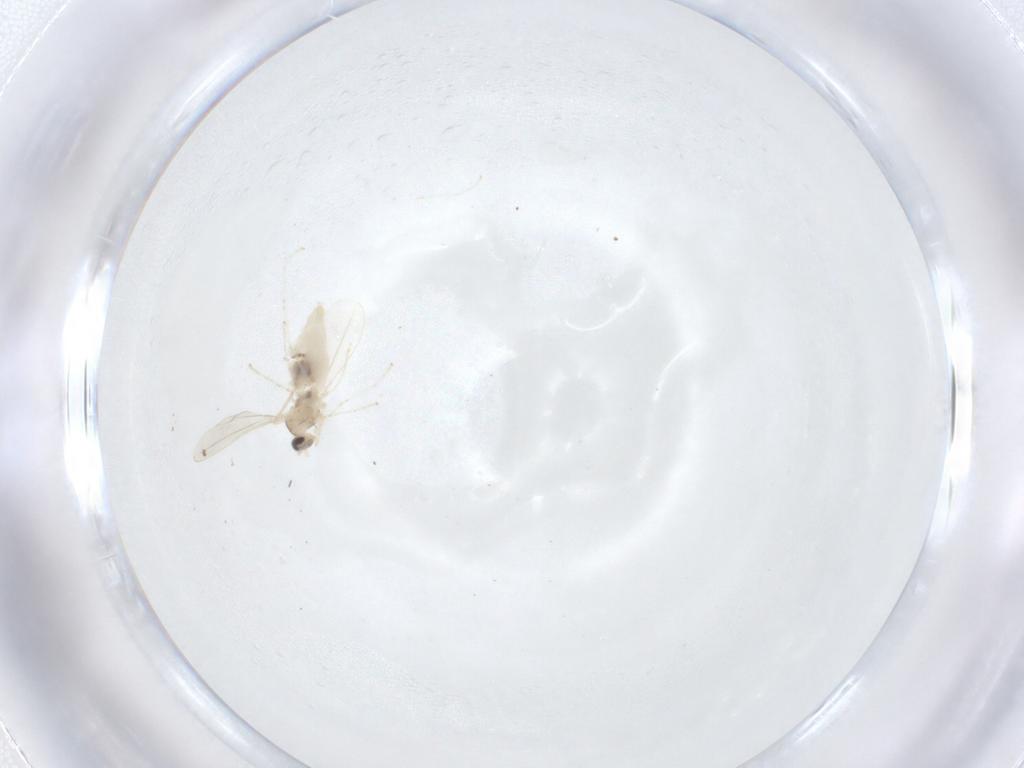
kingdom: Animalia
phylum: Arthropoda
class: Insecta
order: Diptera
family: Cecidomyiidae
